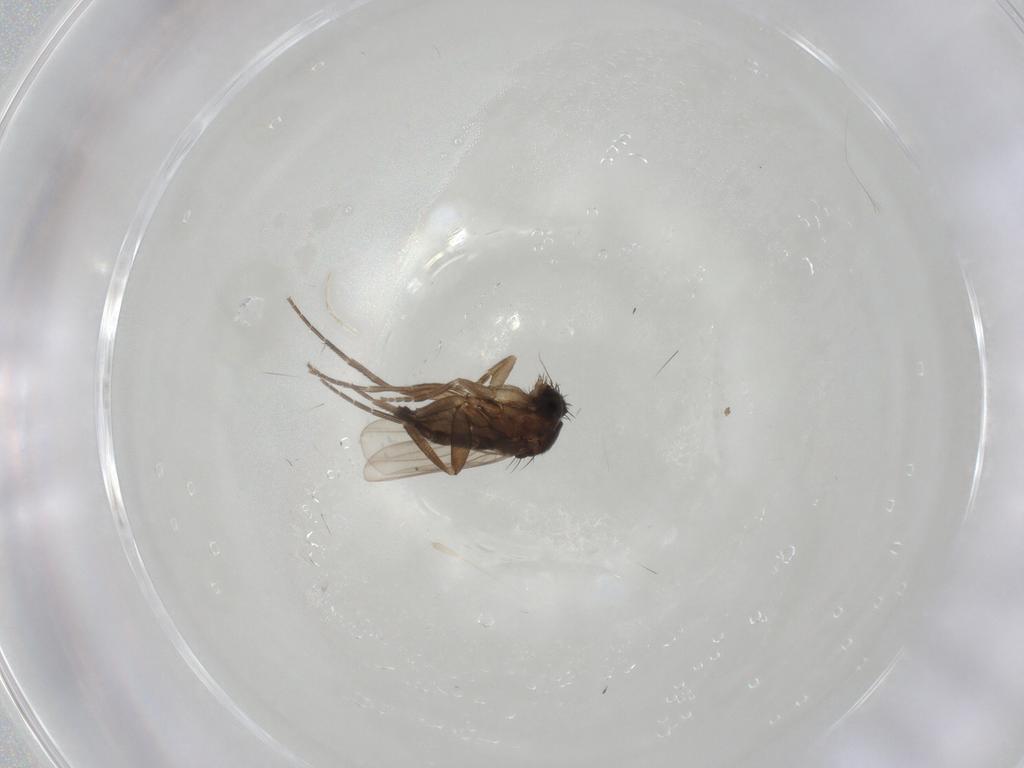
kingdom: Animalia
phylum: Arthropoda
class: Insecta
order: Diptera
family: Phoridae
